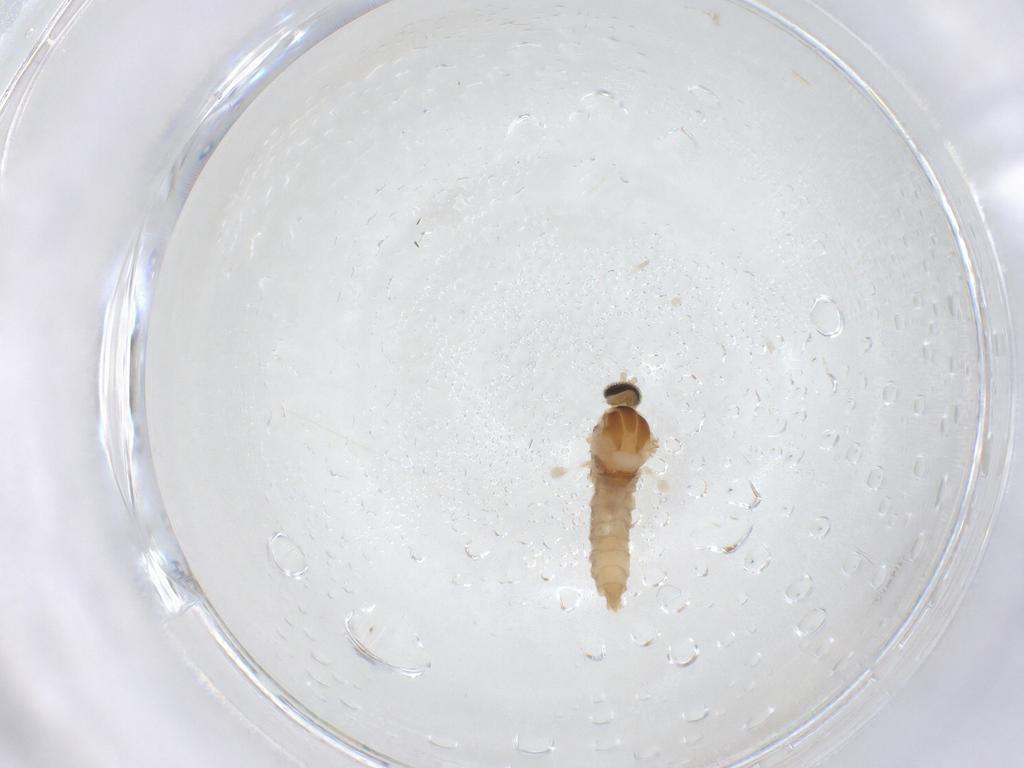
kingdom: Animalia
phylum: Arthropoda
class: Insecta
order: Diptera
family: Cecidomyiidae
